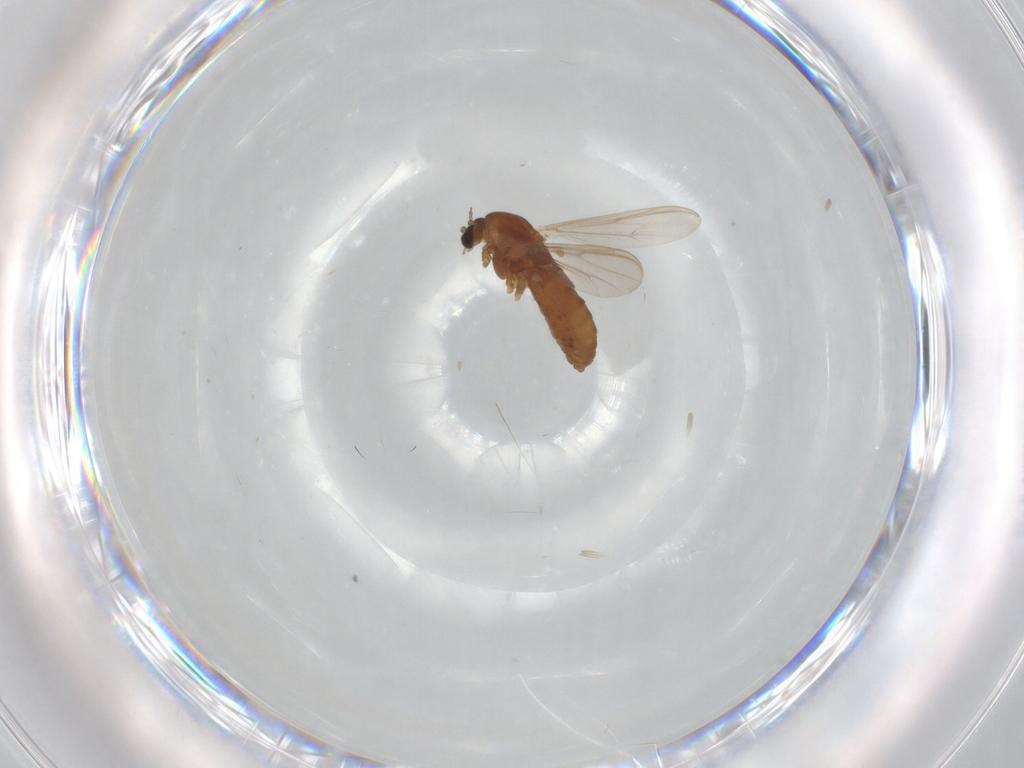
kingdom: Animalia
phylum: Arthropoda
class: Insecta
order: Diptera
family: Chironomidae
